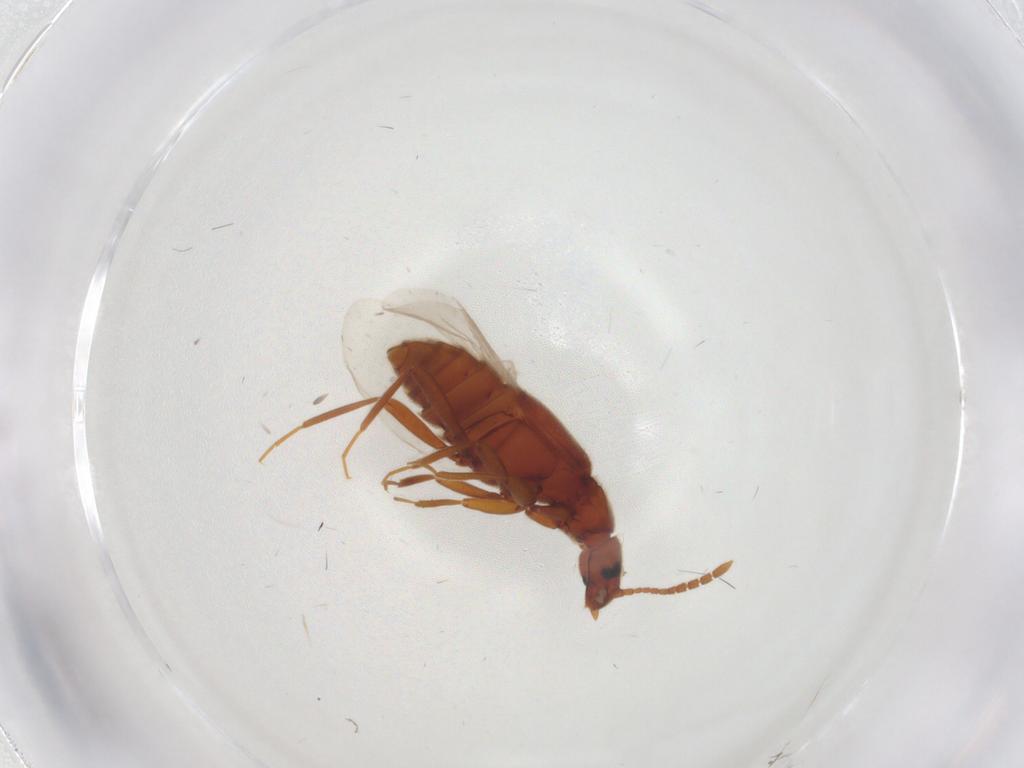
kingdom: Animalia
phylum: Arthropoda
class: Insecta
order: Coleoptera
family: Staphylinidae
